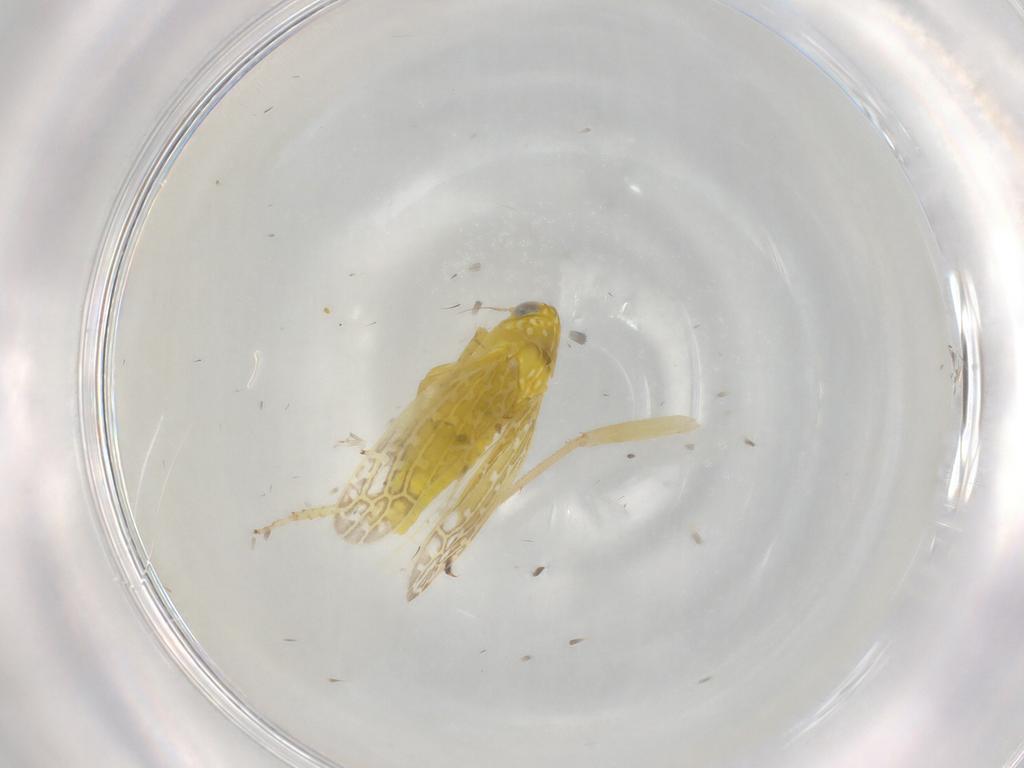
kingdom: Animalia
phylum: Arthropoda
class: Insecta
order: Hemiptera
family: Cicadellidae
